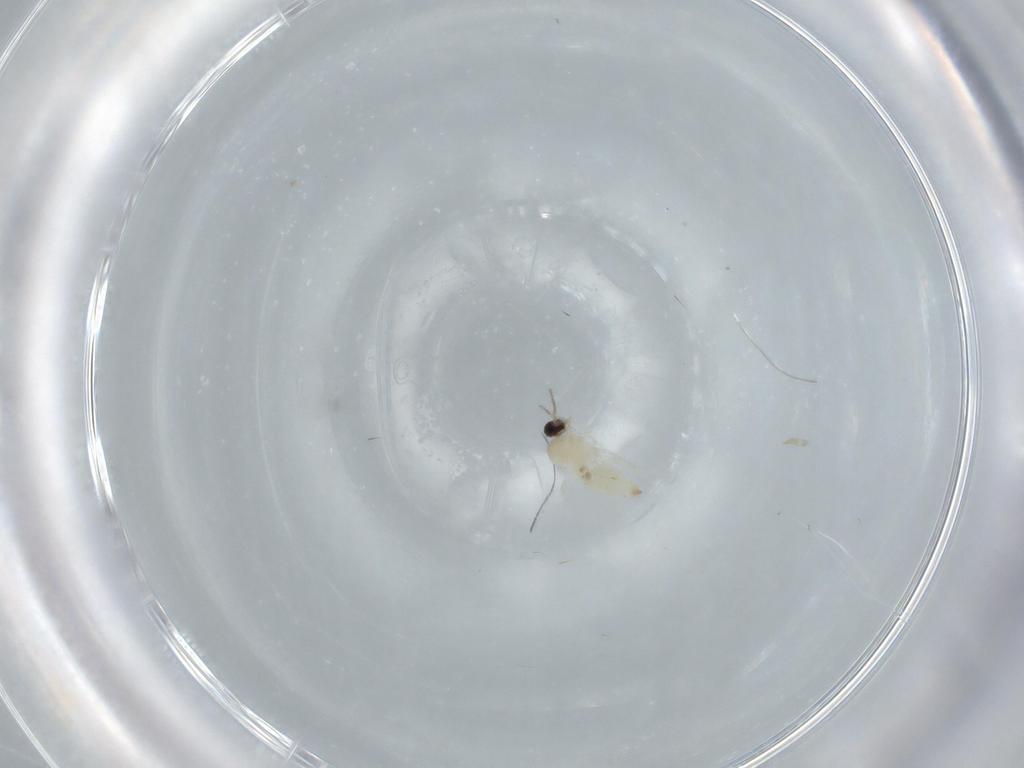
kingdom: Animalia
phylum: Arthropoda
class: Insecta
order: Diptera
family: Cecidomyiidae
